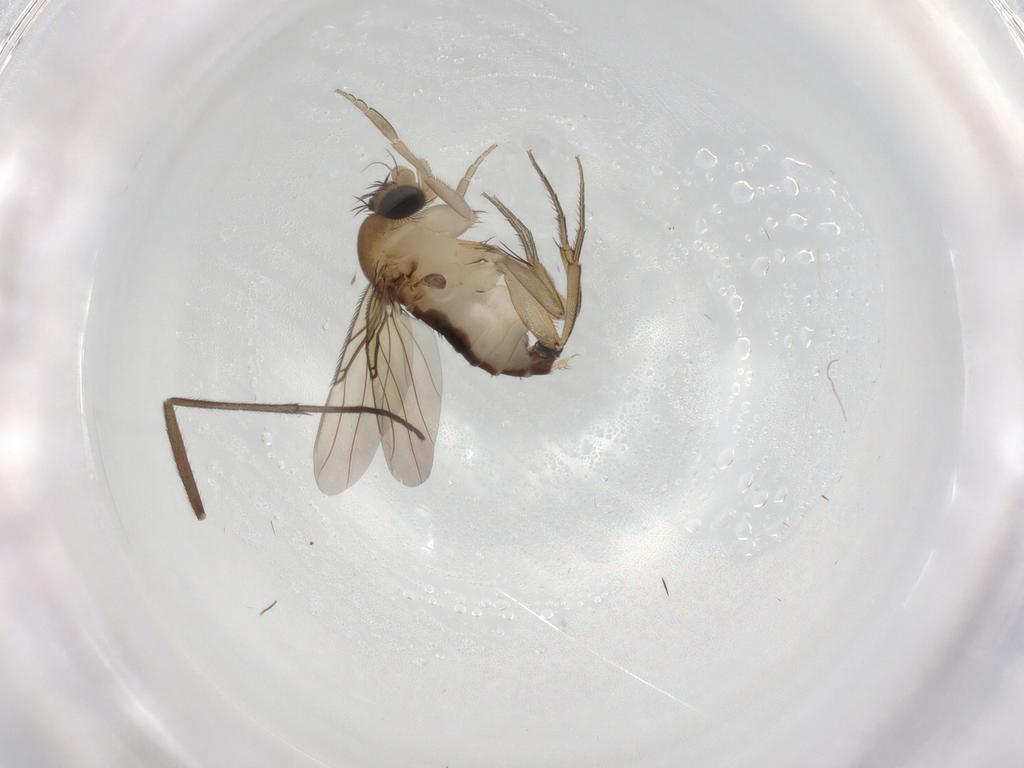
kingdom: Animalia
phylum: Arthropoda
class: Insecta
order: Diptera
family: Phoridae
